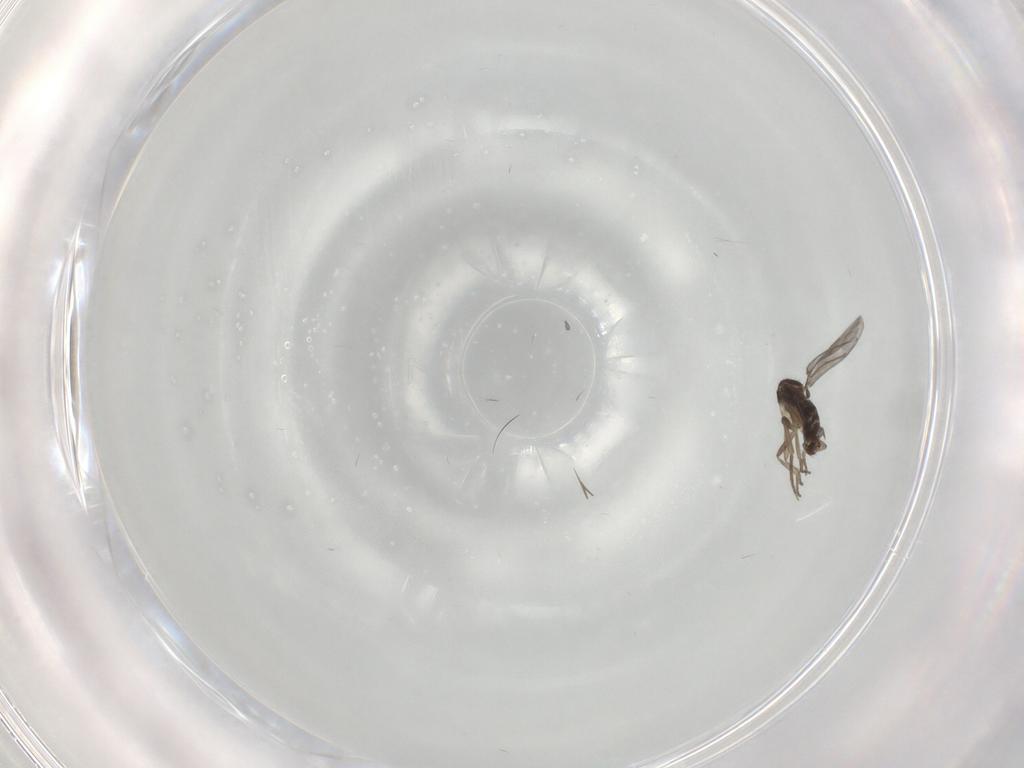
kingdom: Animalia
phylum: Arthropoda
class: Insecta
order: Diptera
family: Phoridae
